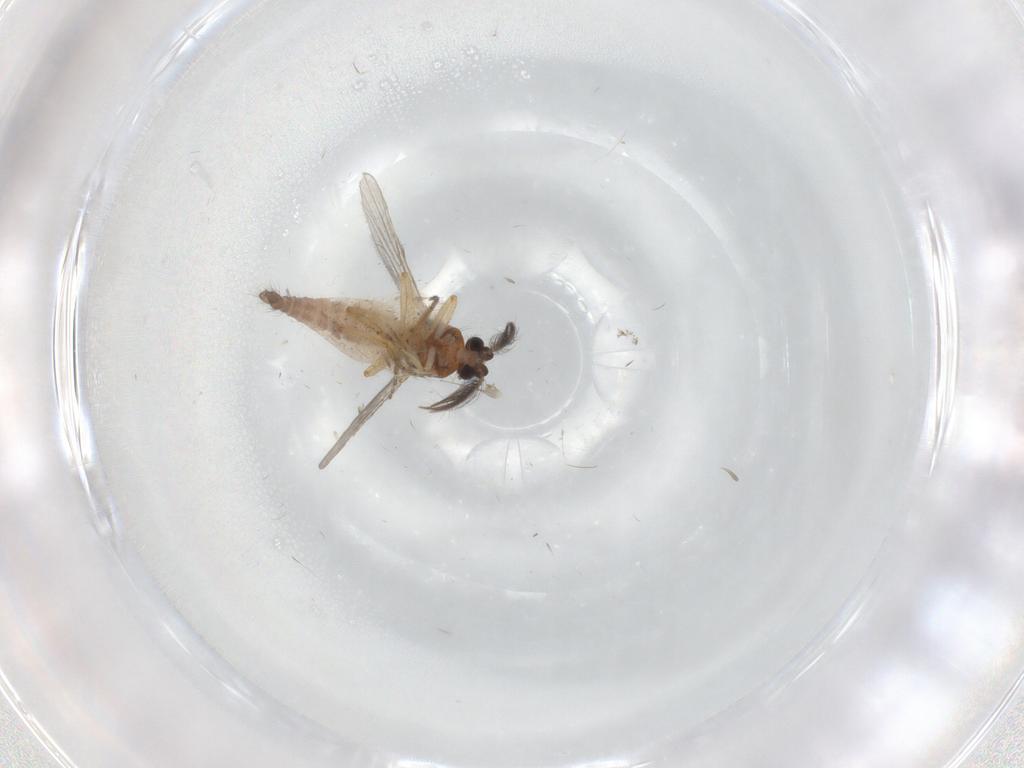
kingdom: Animalia
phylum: Arthropoda
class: Insecta
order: Diptera
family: Ceratopogonidae
